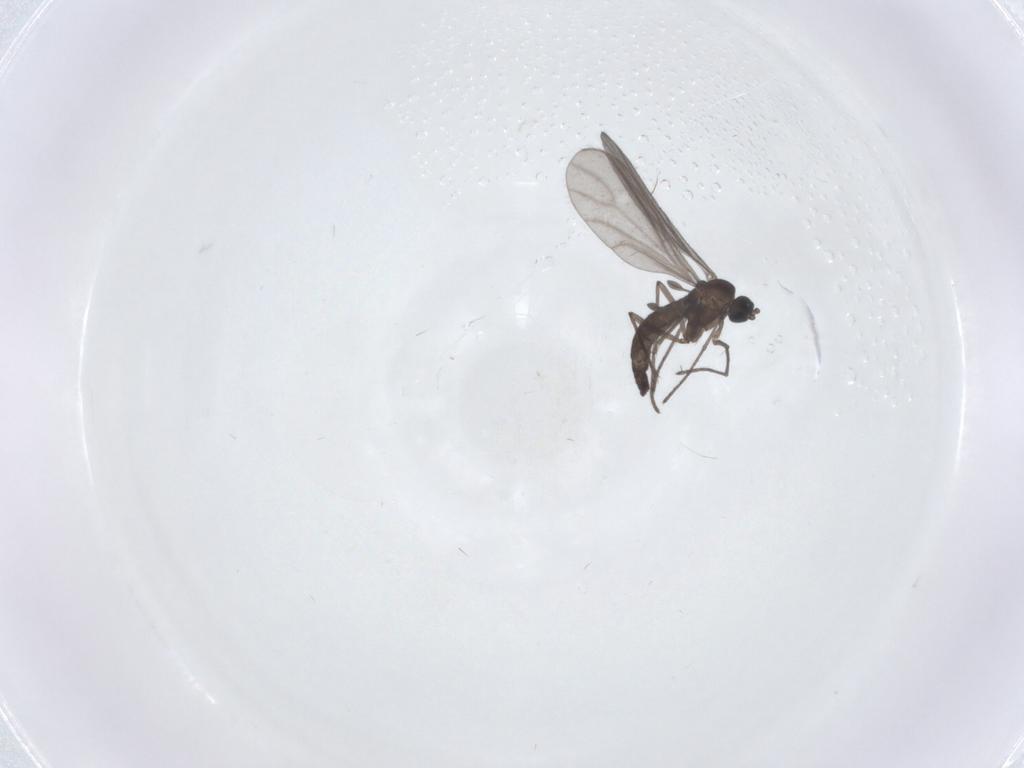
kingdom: Animalia
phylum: Arthropoda
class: Insecta
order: Diptera
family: Sciaridae
